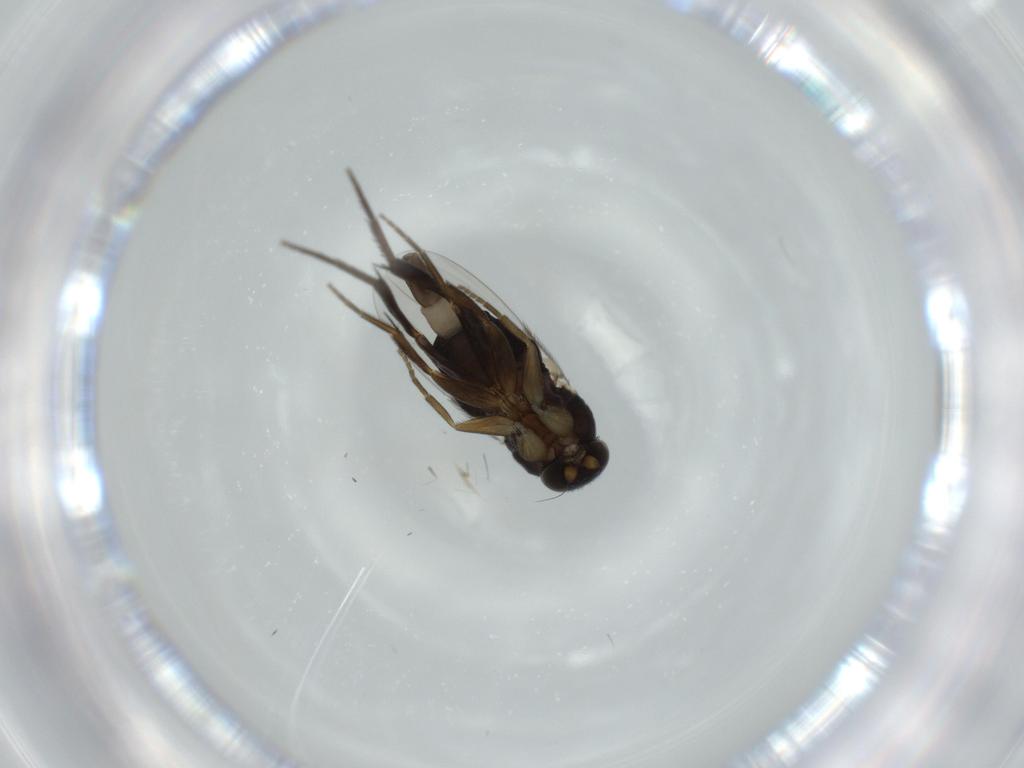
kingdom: Animalia
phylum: Arthropoda
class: Insecta
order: Diptera
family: Phoridae
